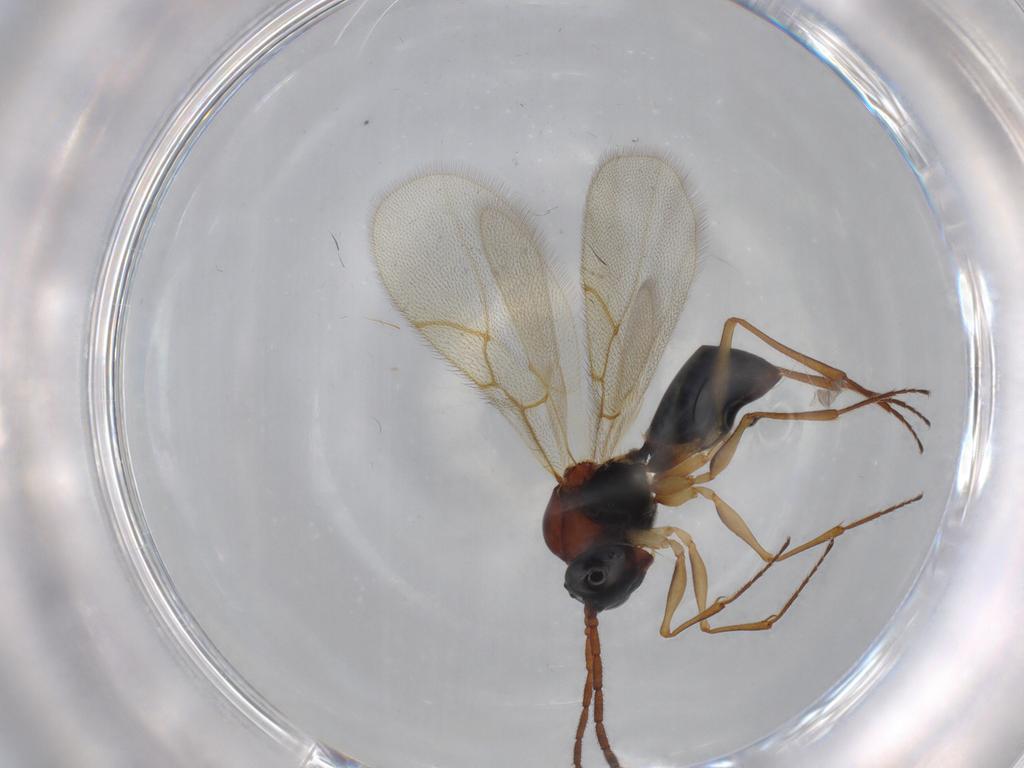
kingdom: Animalia
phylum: Arthropoda
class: Insecta
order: Hymenoptera
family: Figitidae
